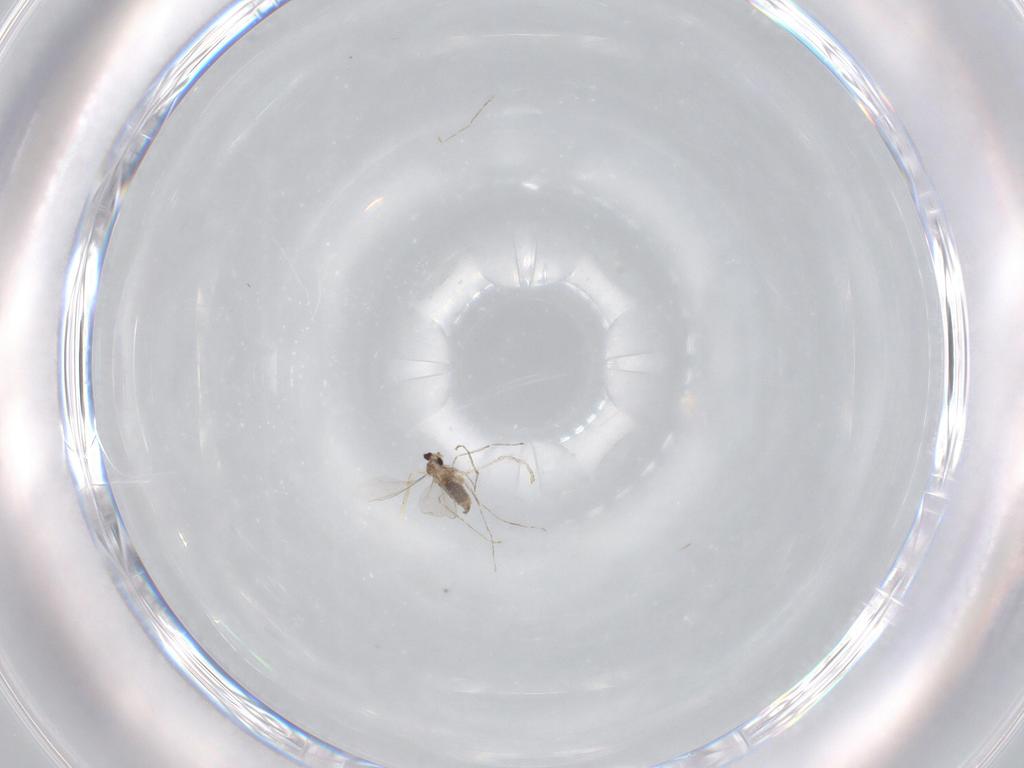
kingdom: Animalia
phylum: Arthropoda
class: Insecta
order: Diptera
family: Cecidomyiidae
